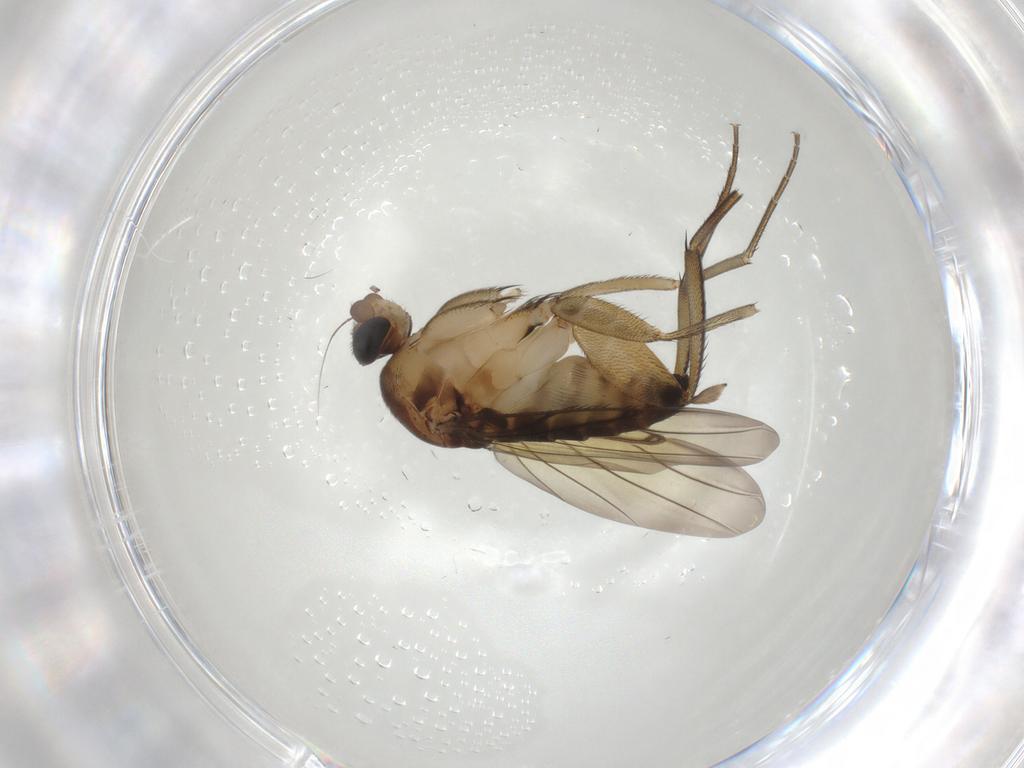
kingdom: Animalia
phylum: Arthropoda
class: Insecta
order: Diptera
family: Phoridae
